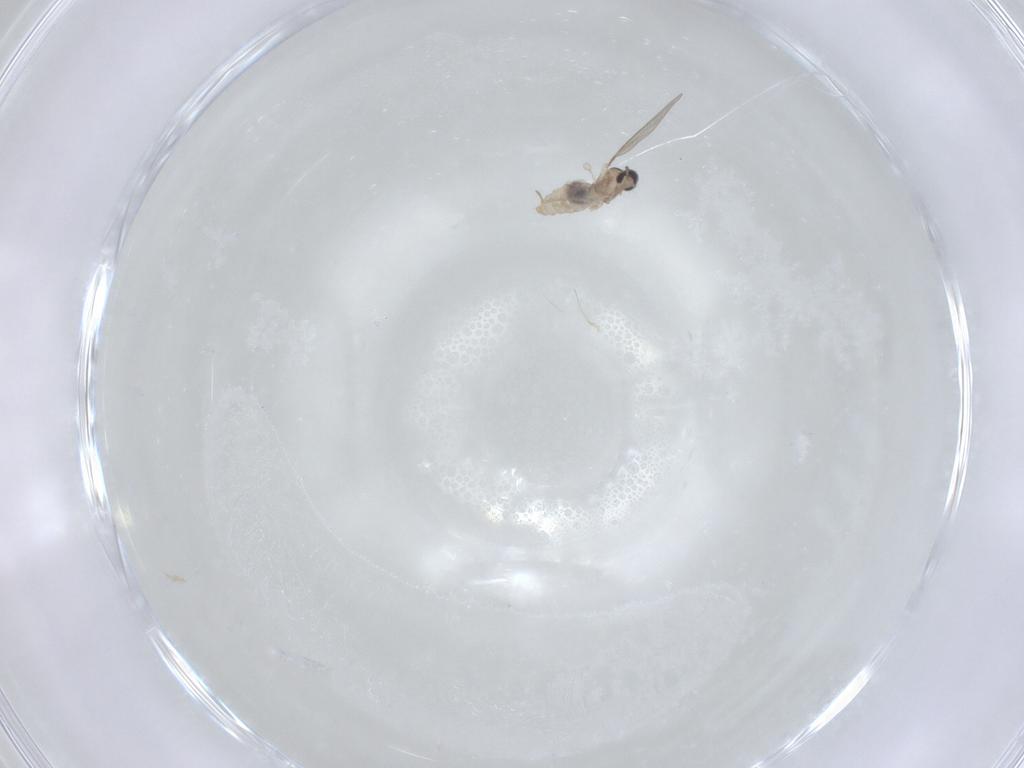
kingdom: Animalia
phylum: Arthropoda
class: Insecta
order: Diptera
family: Cecidomyiidae
